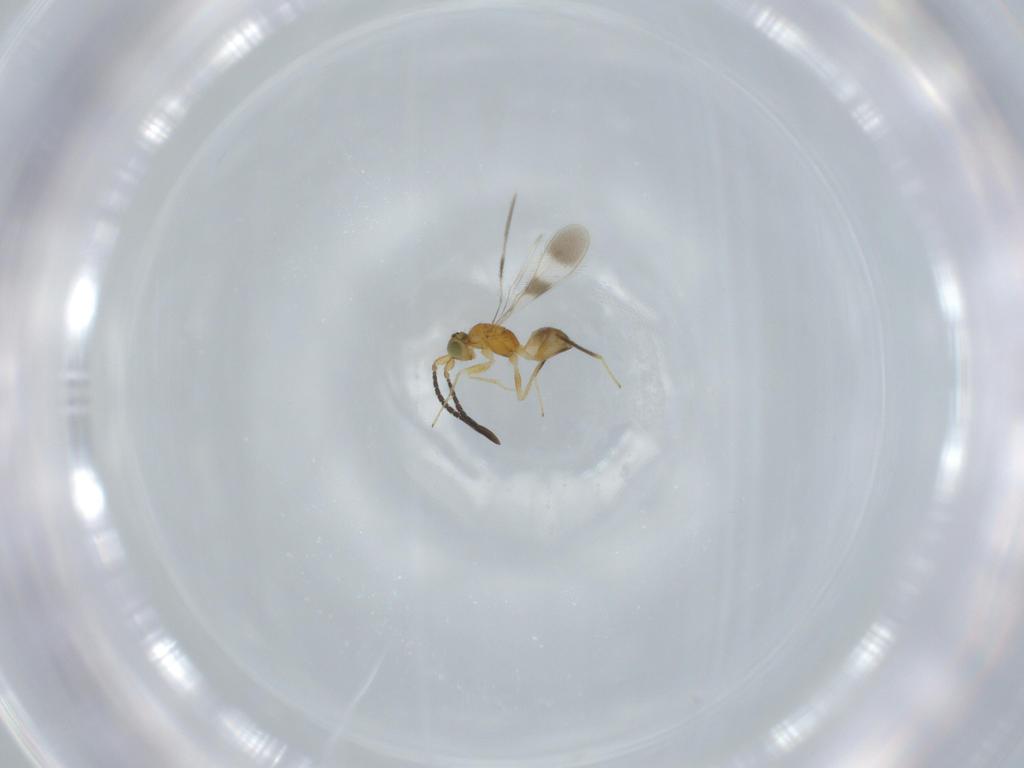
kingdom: Animalia
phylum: Arthropoda
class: Insecta
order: Hymenoptera
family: Mymaridae
